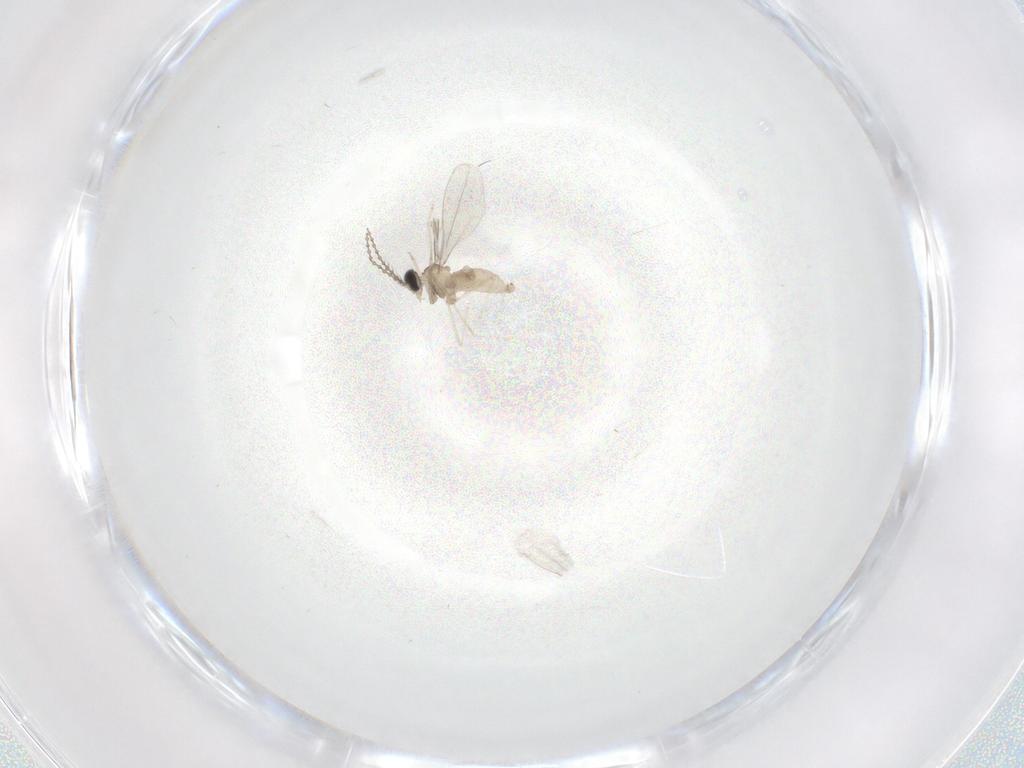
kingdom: Animalia
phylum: Arthropoda
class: Insecta
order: Diptera
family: Cecidomyiidae
